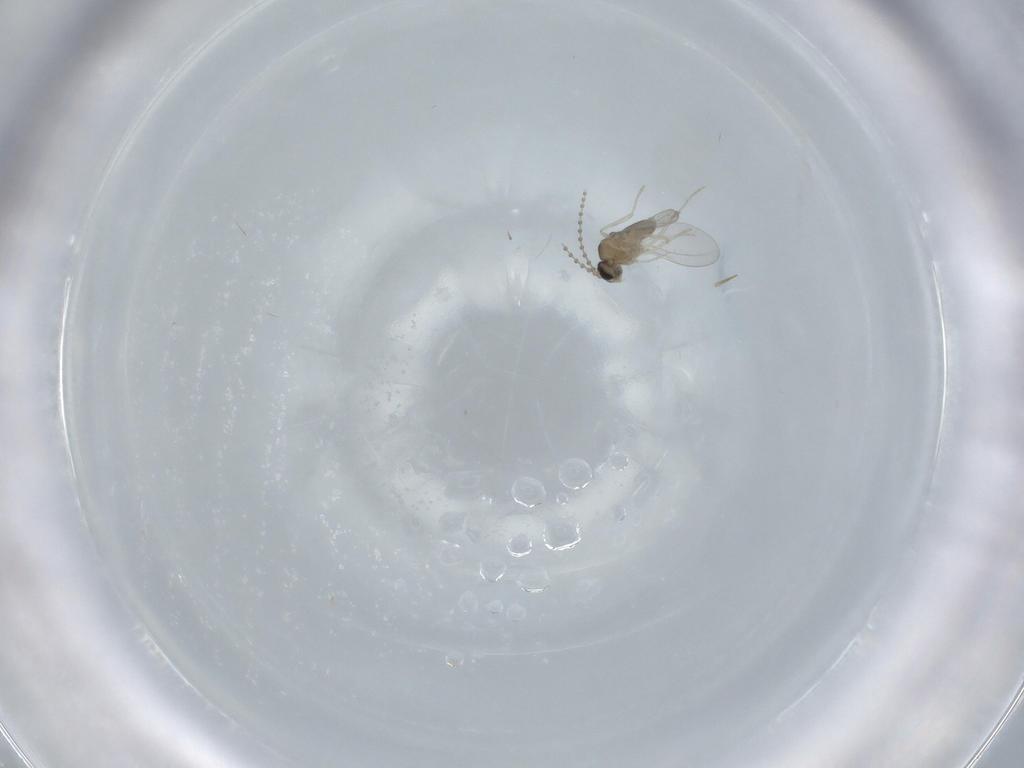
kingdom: Animalia
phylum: Arthropoda
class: Insecta
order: Diptera
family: Cecidomyiidae
